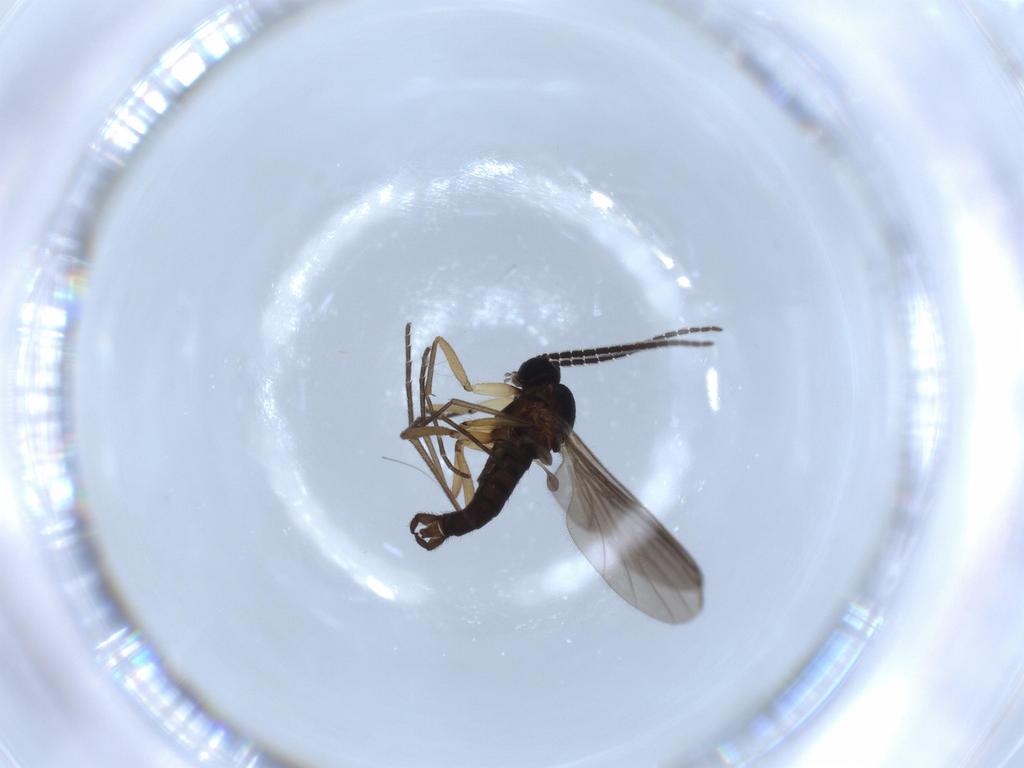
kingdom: Animalia
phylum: Arthropoda
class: Insecta
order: Diptera
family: Sciaridae
